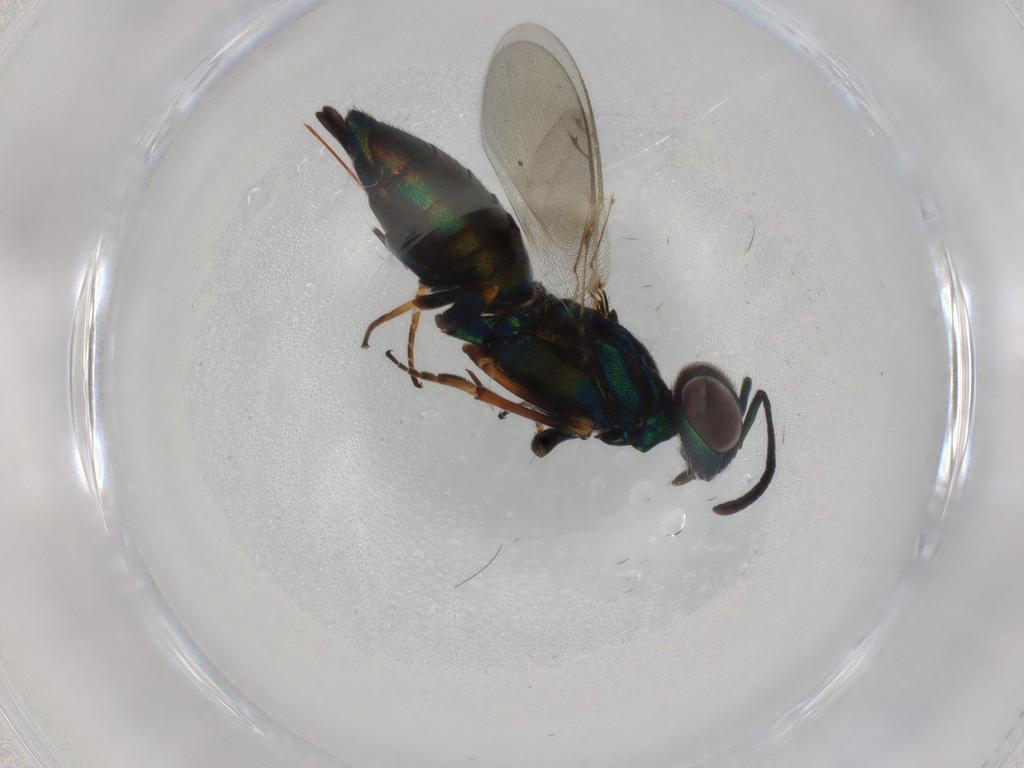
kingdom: Animalia
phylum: Arthropoda
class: Insecta
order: Hymenoptera
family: Eupelmidae
